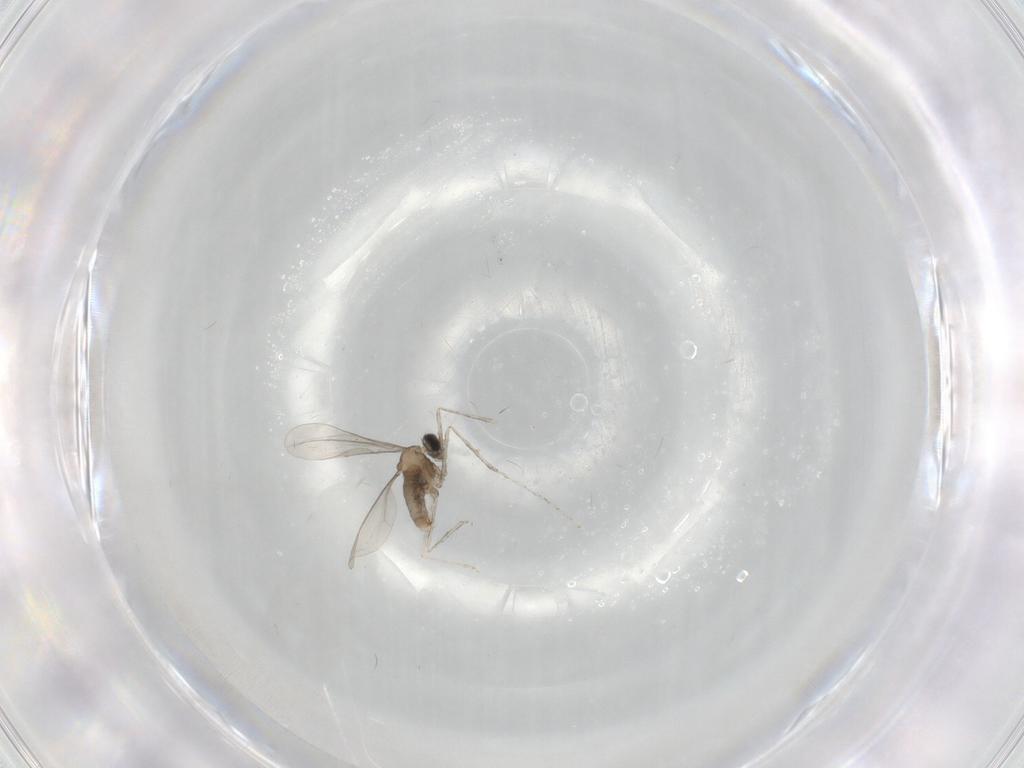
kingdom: Animalia
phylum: Arthropoda
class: Insecta
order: Diptera
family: Cecidomyiidae
